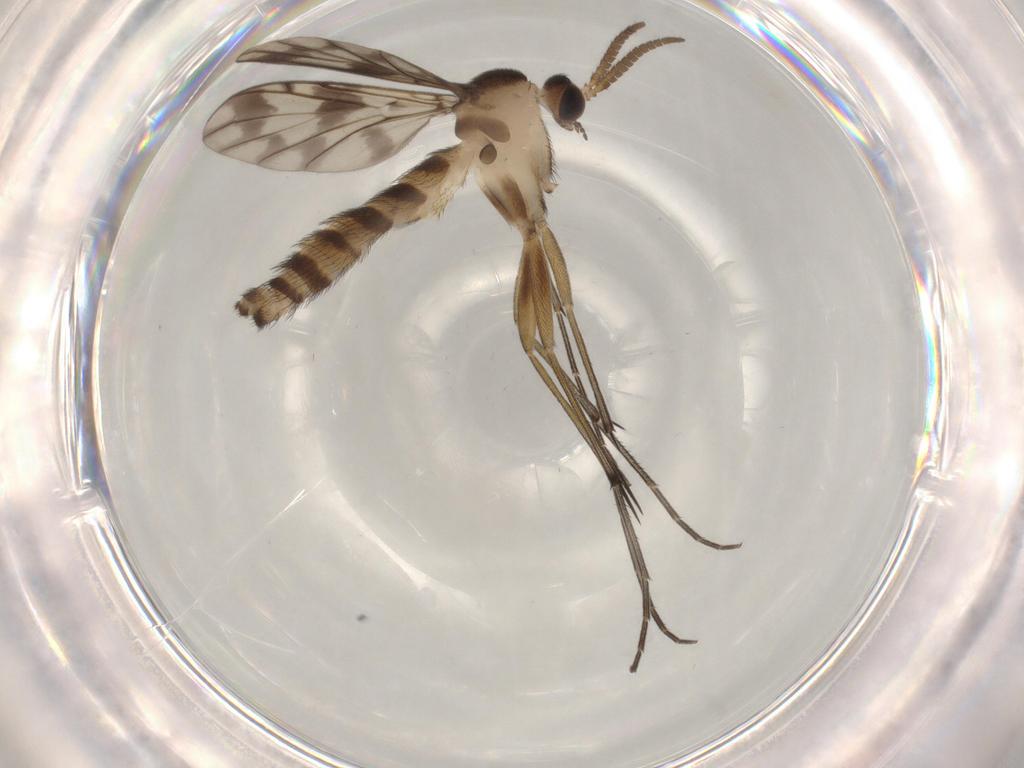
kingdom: Animalia
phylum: Arthropoda
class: Insecta
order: Diptera
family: Keroplatidae
